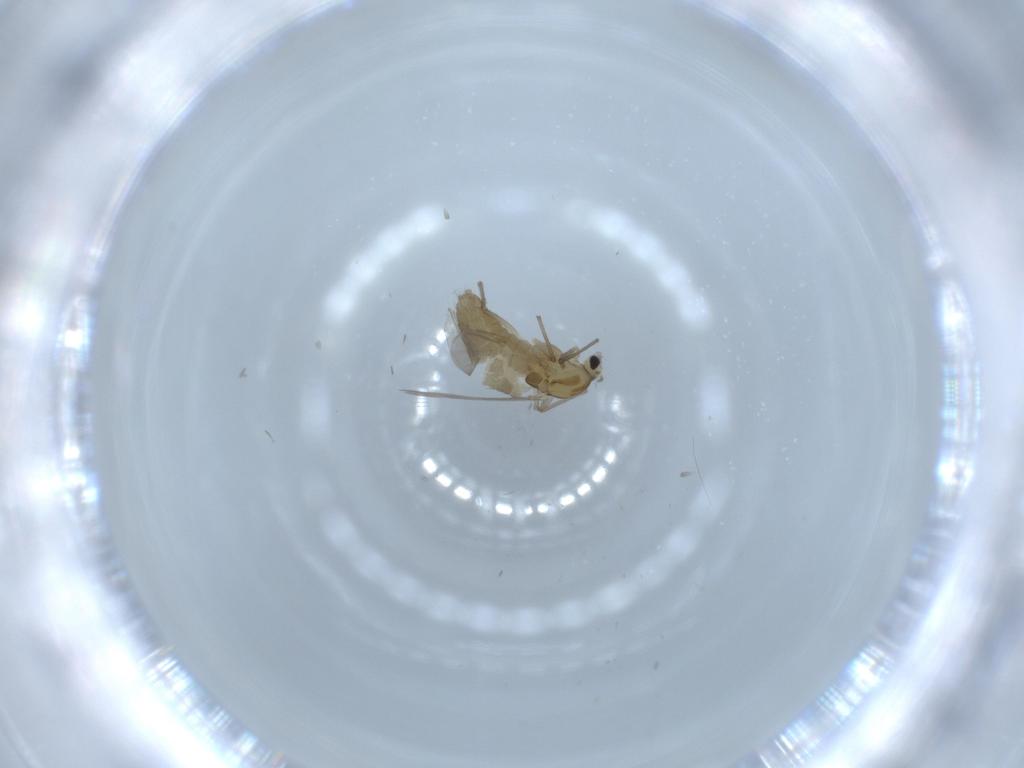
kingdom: Animalia
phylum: Arthropoda
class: Insecta
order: Diptera
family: Chironomidae
